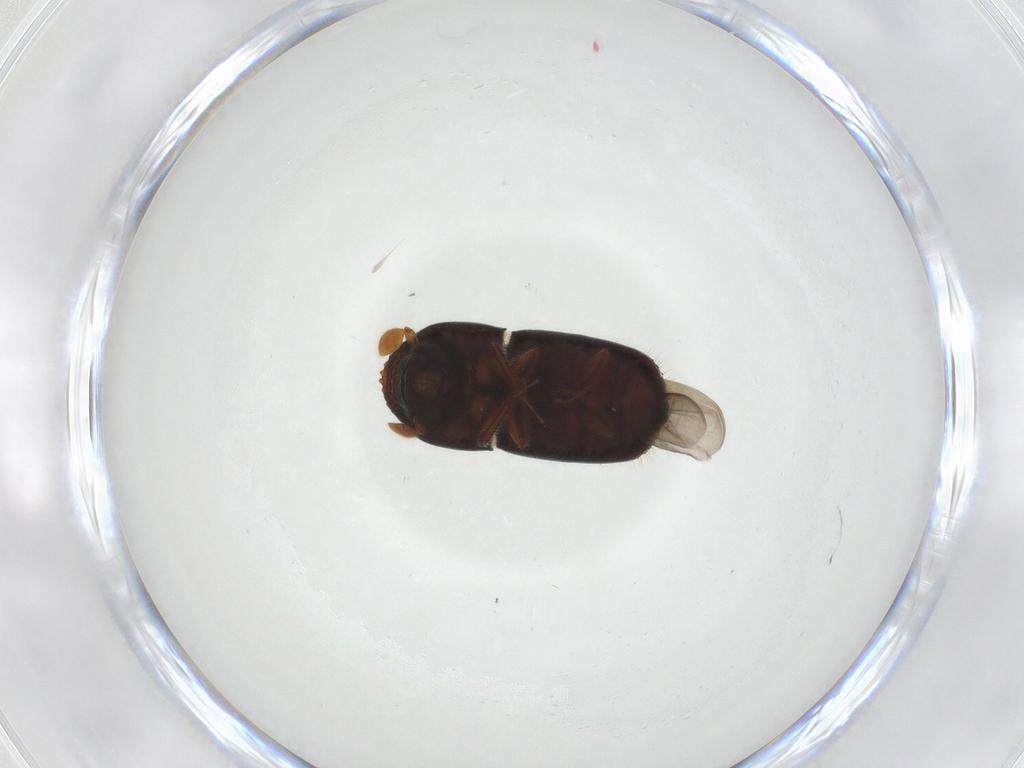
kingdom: Animalia
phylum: Arthropoda
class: Insecta
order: Coleoptera
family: Curculionidae
